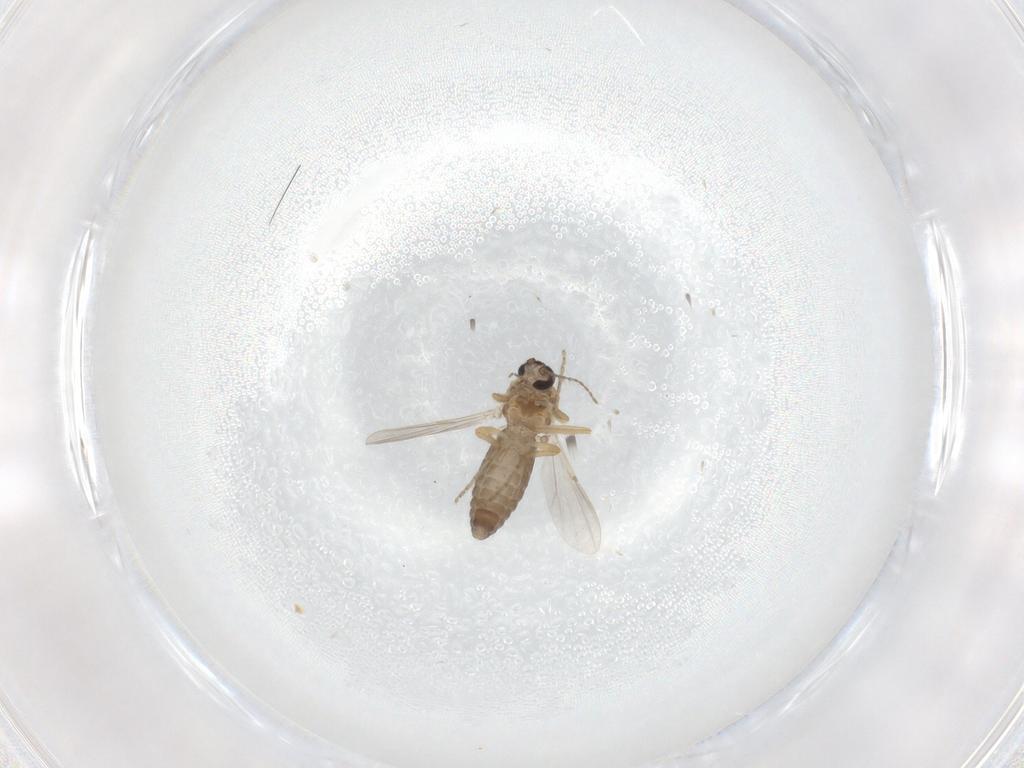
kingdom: Animalia
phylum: Arthropoda
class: Insecta
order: Diptera
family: Ceratopogonidae
